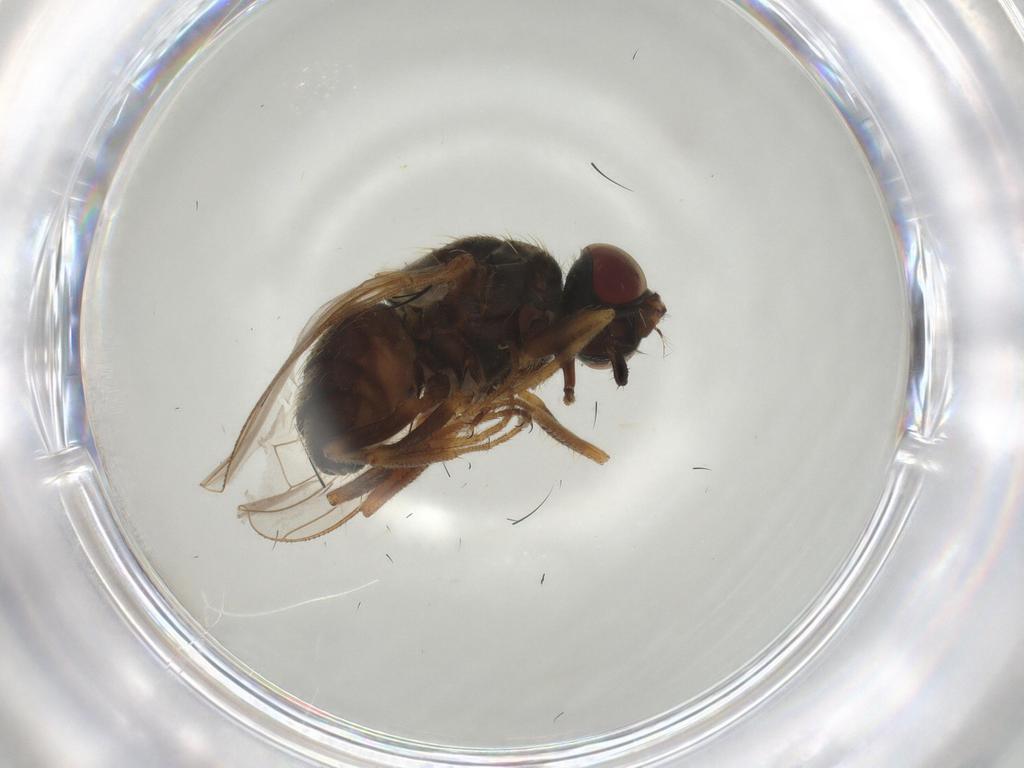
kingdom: Animalia
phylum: Arthropoda
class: Insecta
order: Diptera
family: Ceratopogonidae
